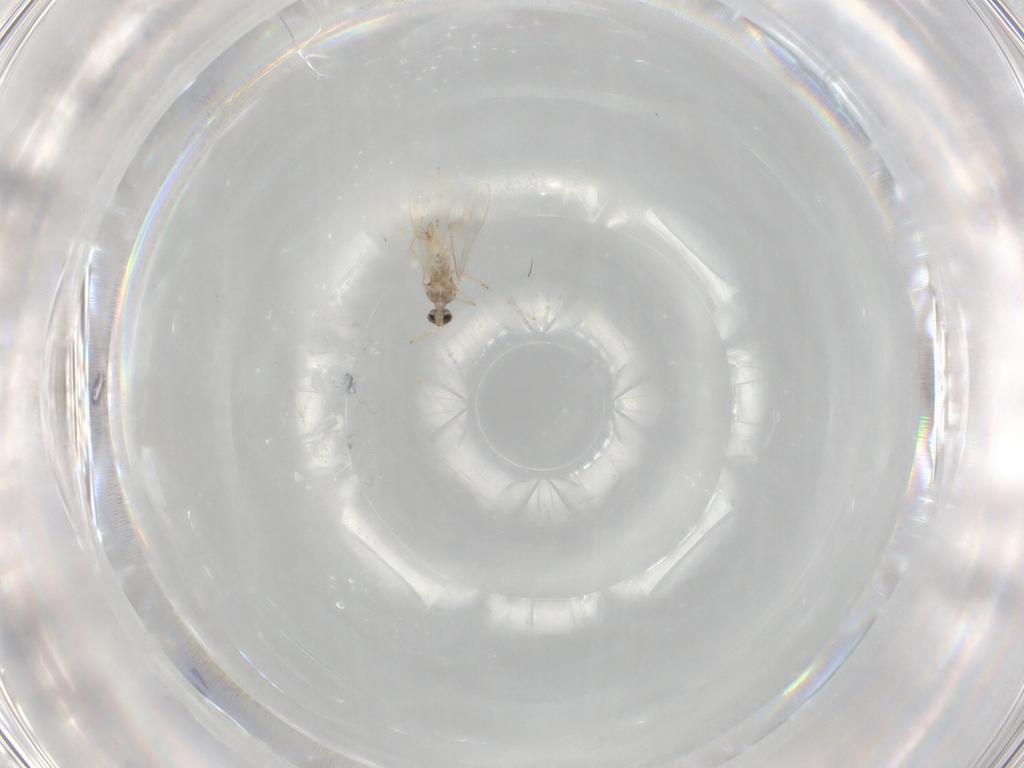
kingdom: Animalia
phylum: Arthropoda
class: Insecta
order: Diptera
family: Cecidomyiidae
